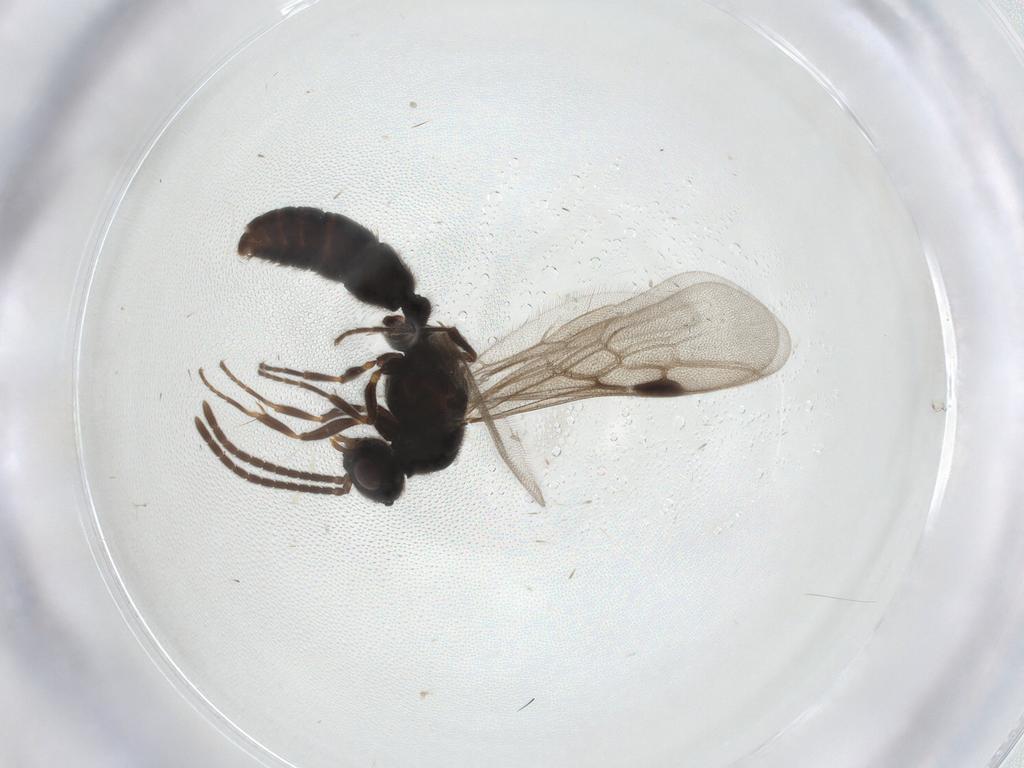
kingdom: Animalia
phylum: Arthropoda
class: Insecta
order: Hymenoptera
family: Formicidae
